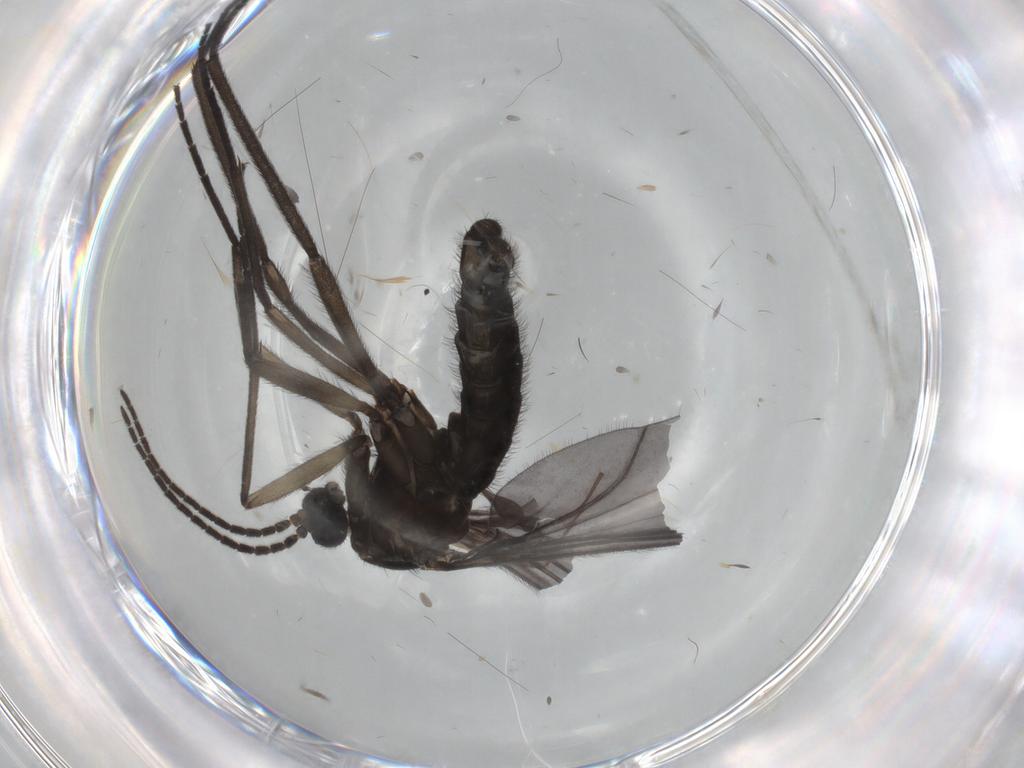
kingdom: Animalia
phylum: Arthropoda
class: Insecta
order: Diptera
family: Sciaridae
